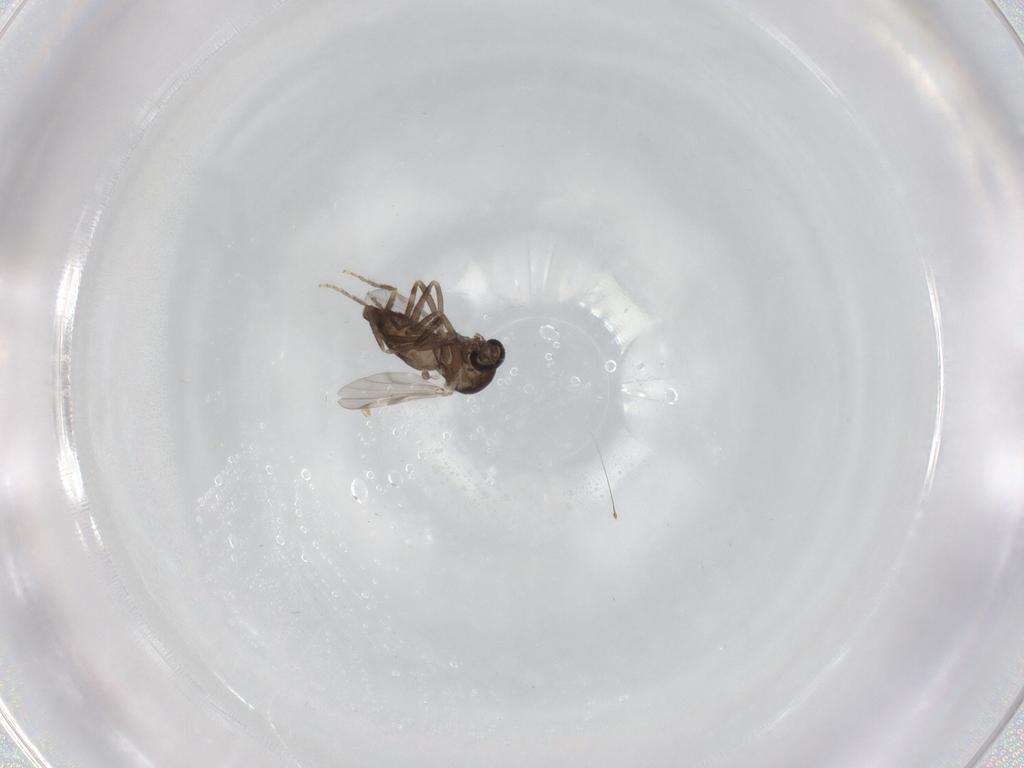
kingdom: Animalia
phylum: Arthropoda
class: Insecta
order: Diptera
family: Ceratopogonidae
